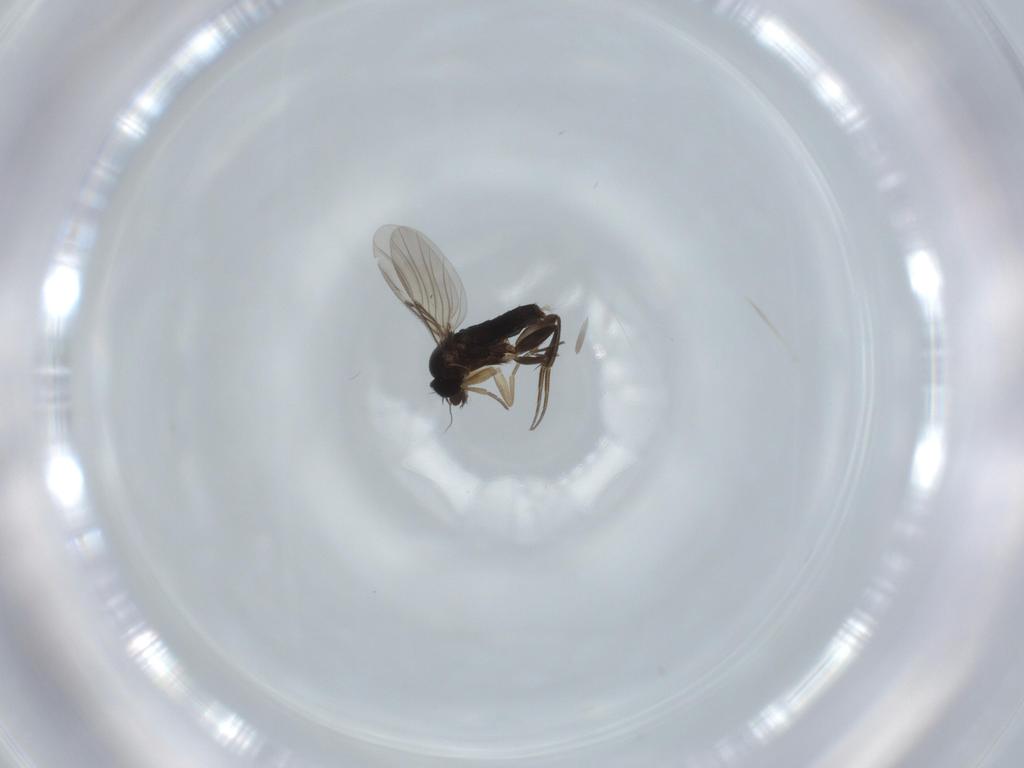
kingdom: Animalia
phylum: Arthropoda
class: Insecta
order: Diptera
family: Phoridae
